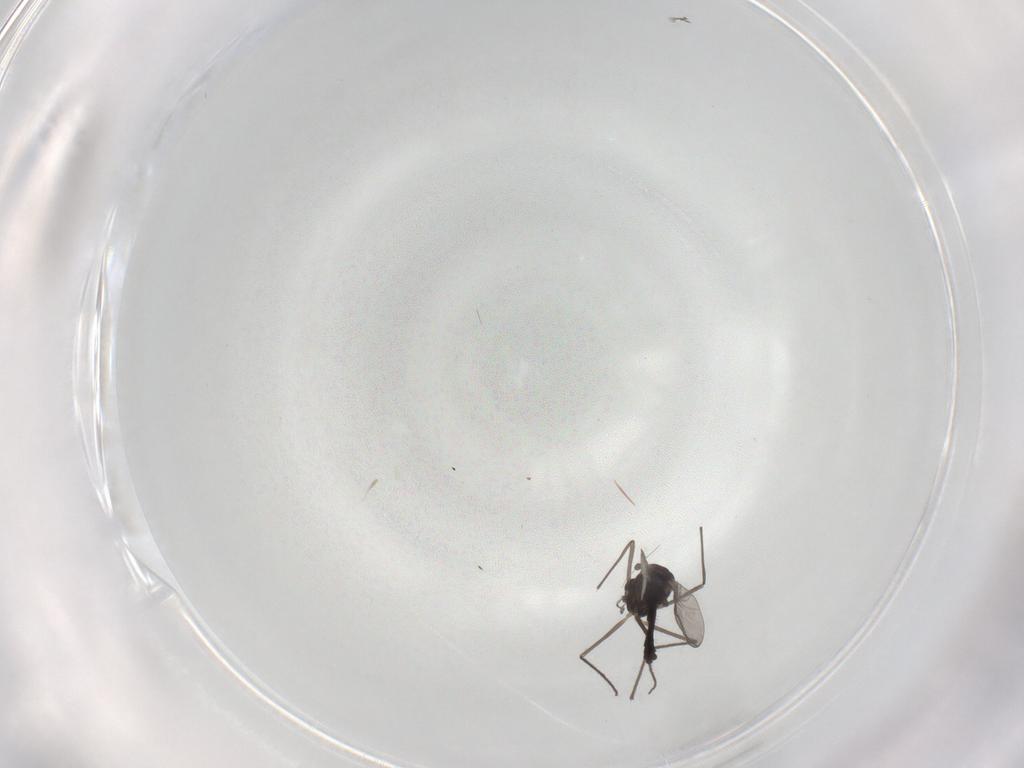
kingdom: Animalia
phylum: Arthropoda
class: Insecta
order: Diptera
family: Chironomidae
